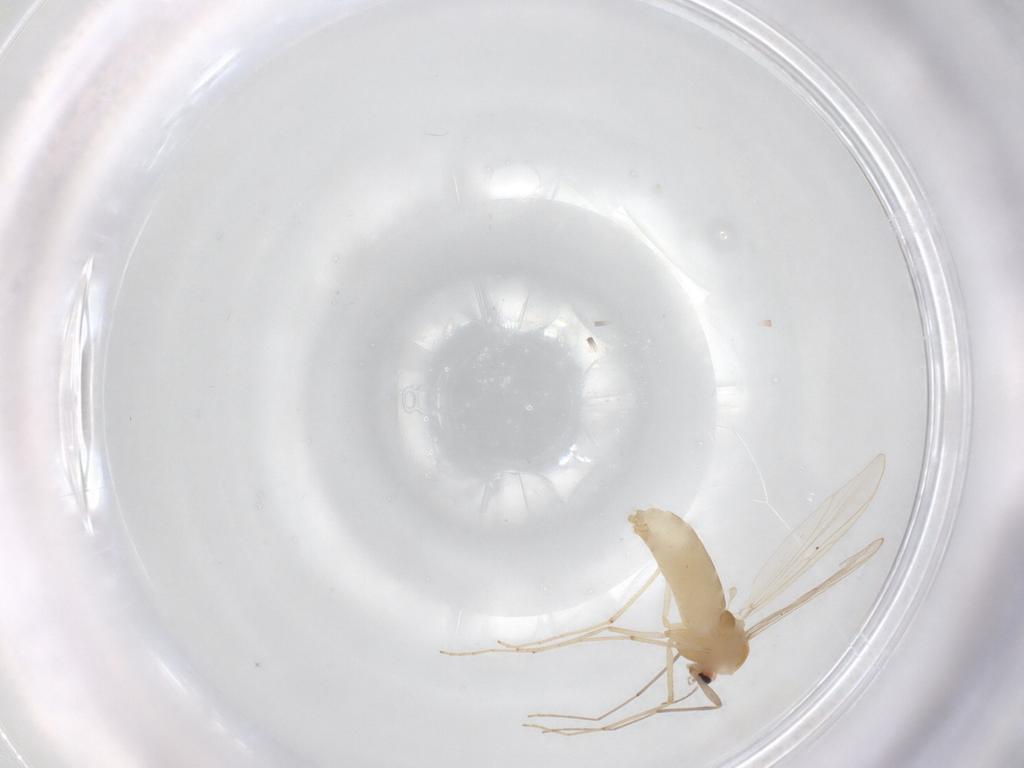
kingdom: Animalia
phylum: Arthropoda
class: Insecta
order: Diptera
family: Chironomidae
